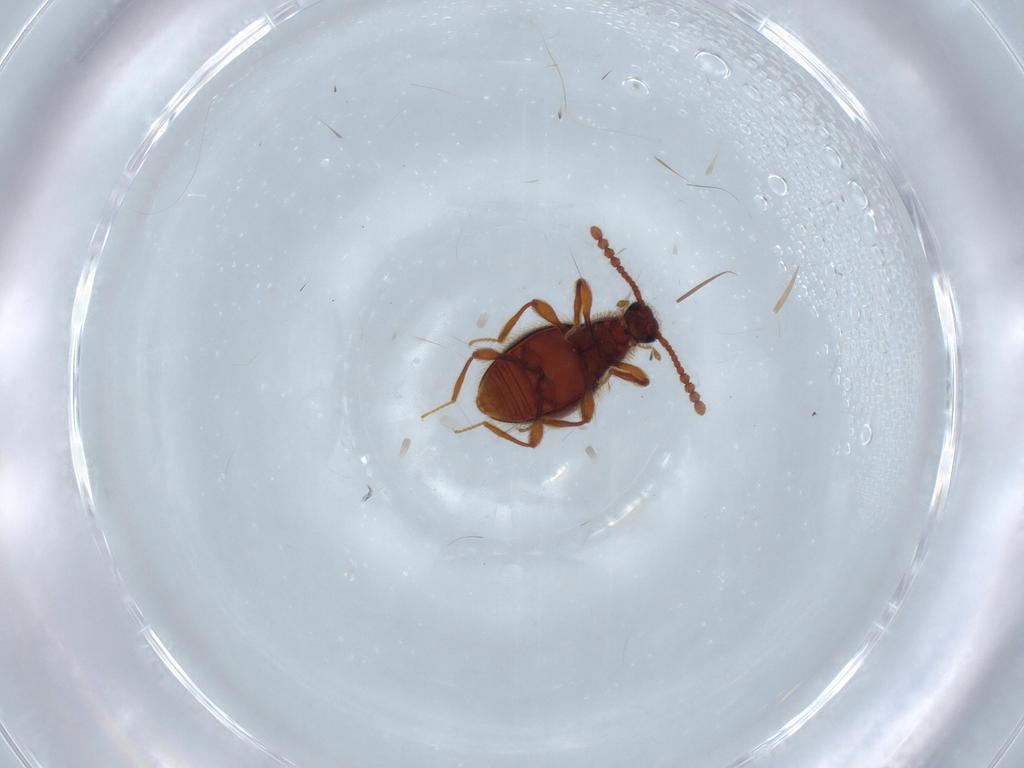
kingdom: Animalia
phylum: Arthropoda
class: Insecta
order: Coleoptera
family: Staphylinidae
